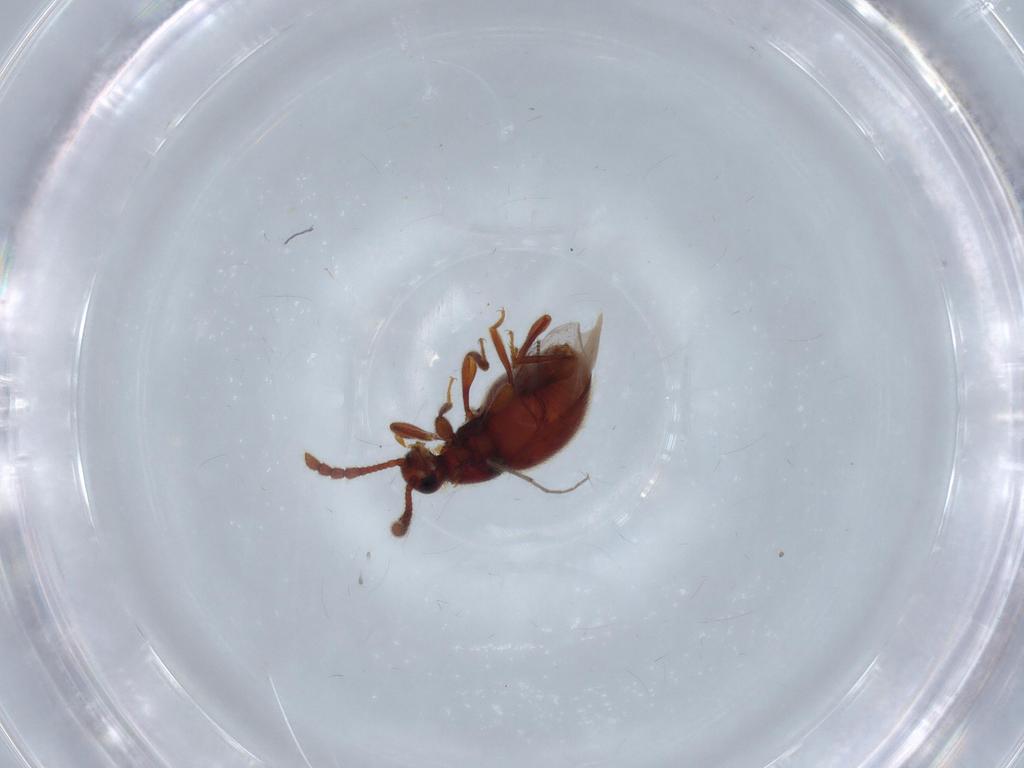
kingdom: Animalia
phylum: Arthropoda
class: Insecta
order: Coleoptera
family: Staphylinidae
